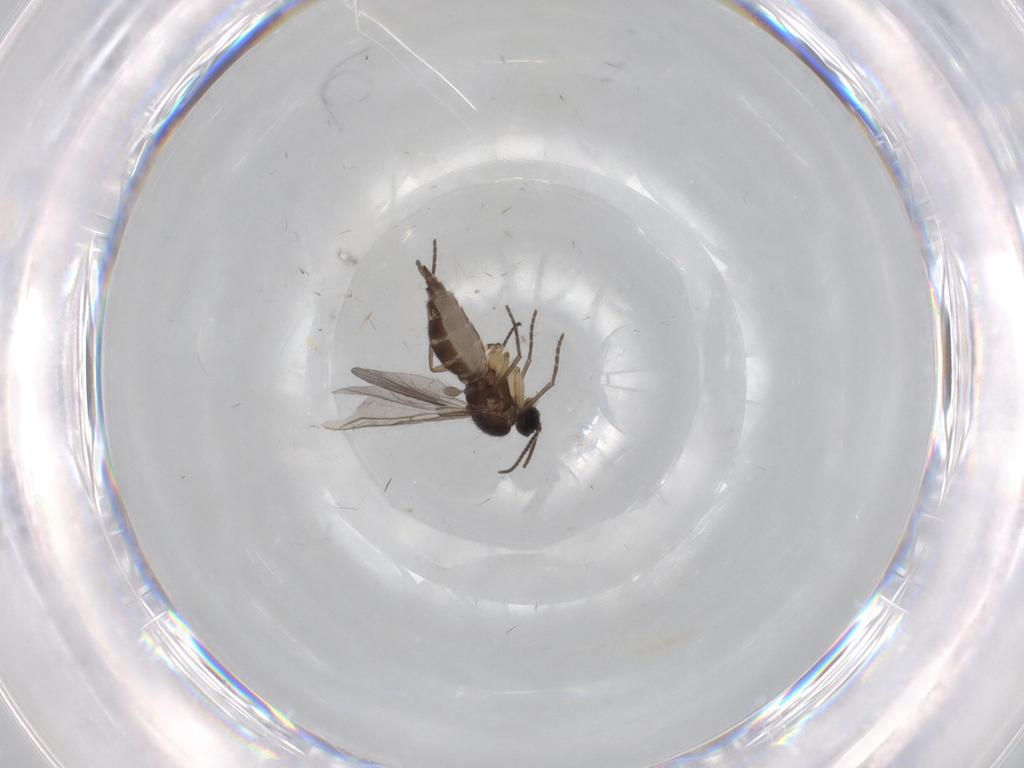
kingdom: Animalia
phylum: Arthropoda
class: Insecta
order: Diptera
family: Sciaridae
